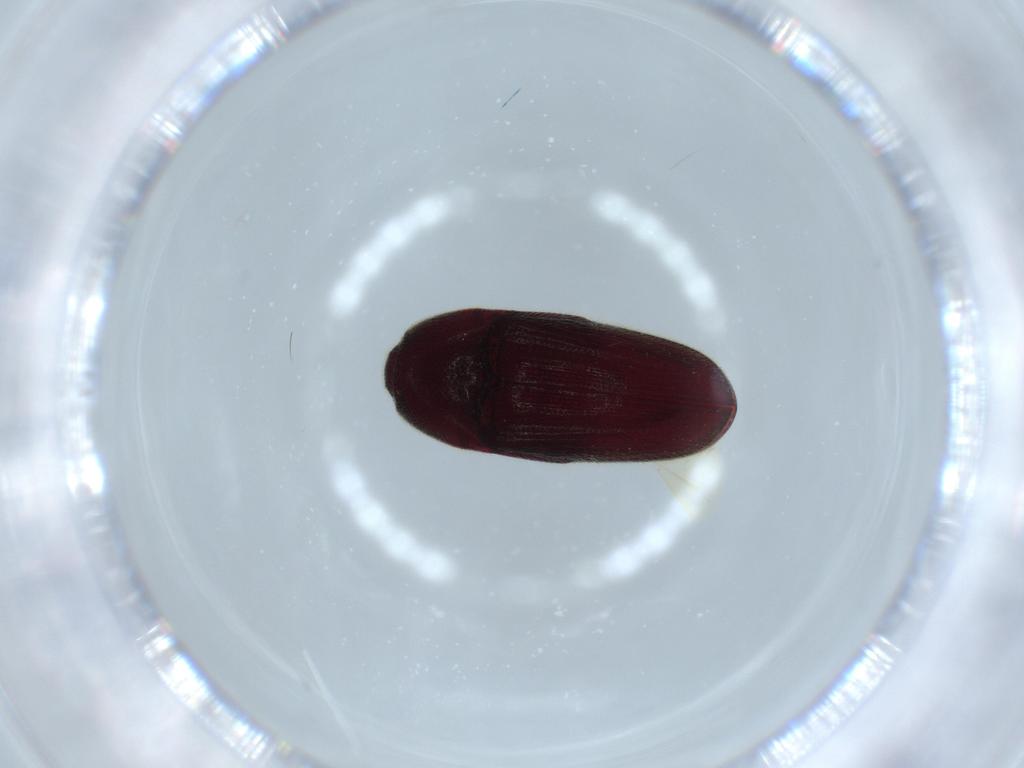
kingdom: Animalia
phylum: Arthropoda
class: Insecta
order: Coleoptera
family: Throscidae
